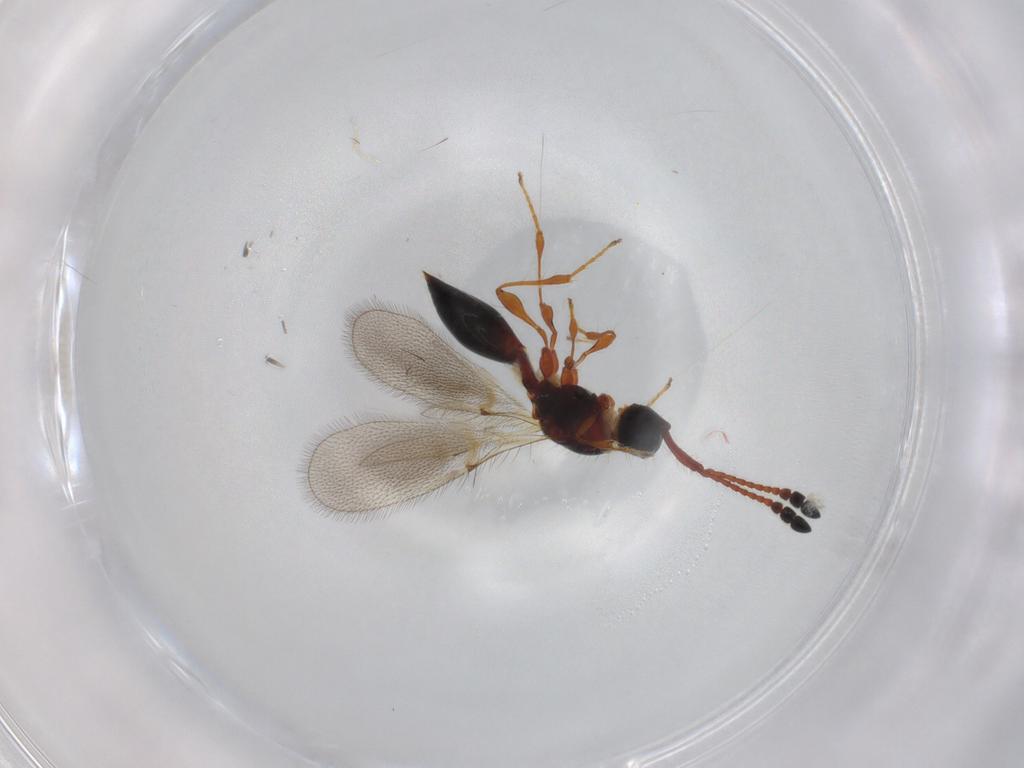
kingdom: Animalia
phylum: Arthropoda
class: Insecta
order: Hymenoptera
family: Diapriidae
